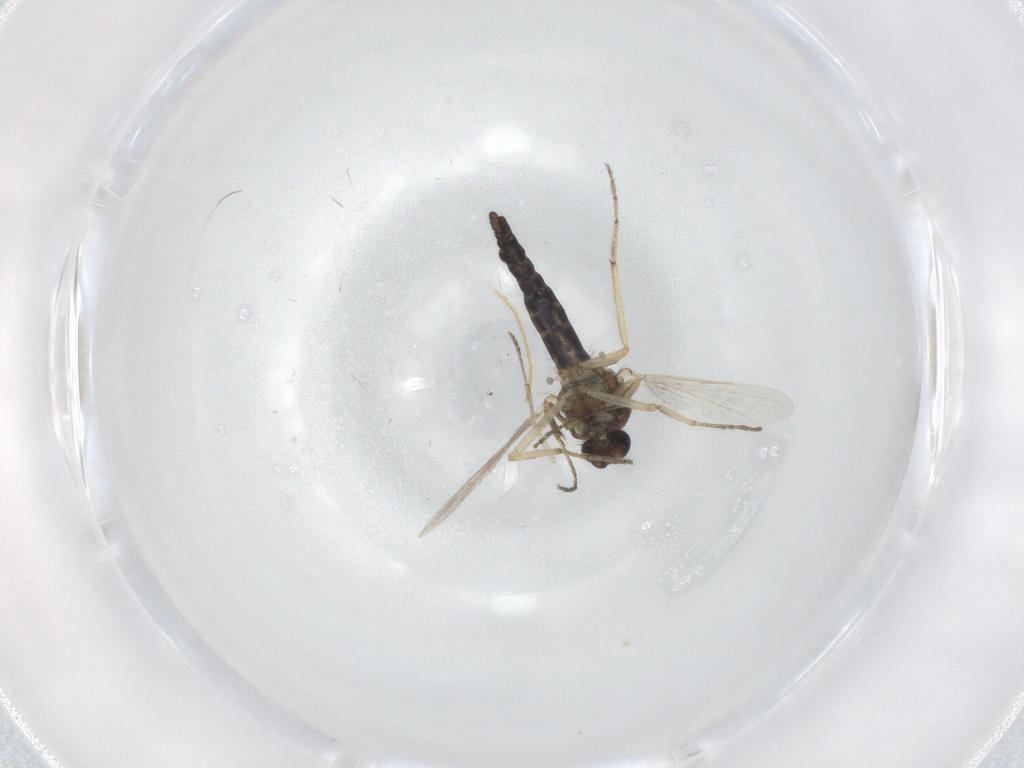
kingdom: Animalia
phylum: Arthropoda
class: Insecta
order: Diptera
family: Ceratopogonidae
